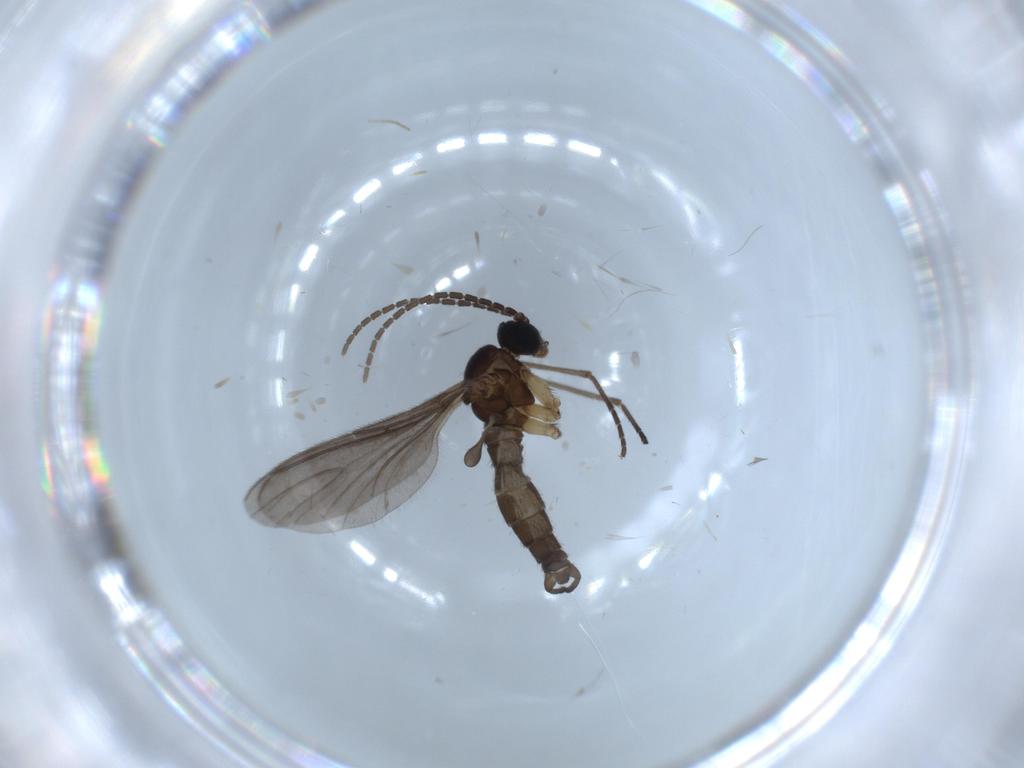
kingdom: Animalia
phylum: Arthropoda
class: Insecta
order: Diptera
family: Sciaridae
